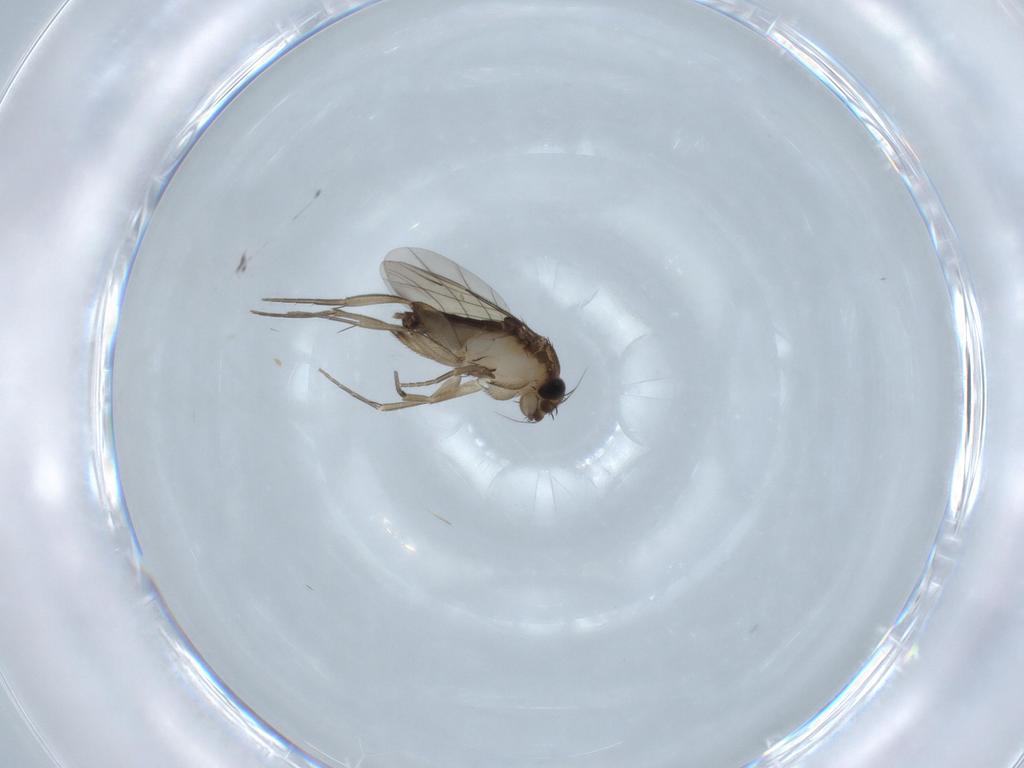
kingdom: Animalia
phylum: Arthropoda
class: Insecta
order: Diptera
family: Phoridae
